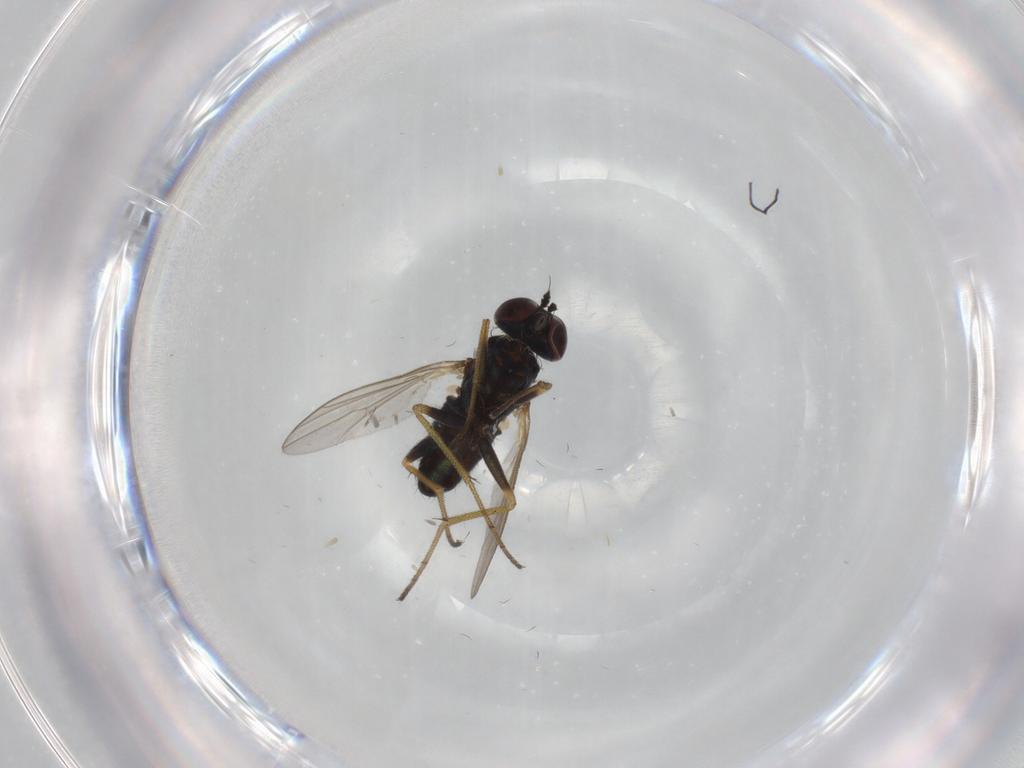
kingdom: Animalia
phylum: Arthropoda
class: Insecta
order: Diptera
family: Dolichopodidae
